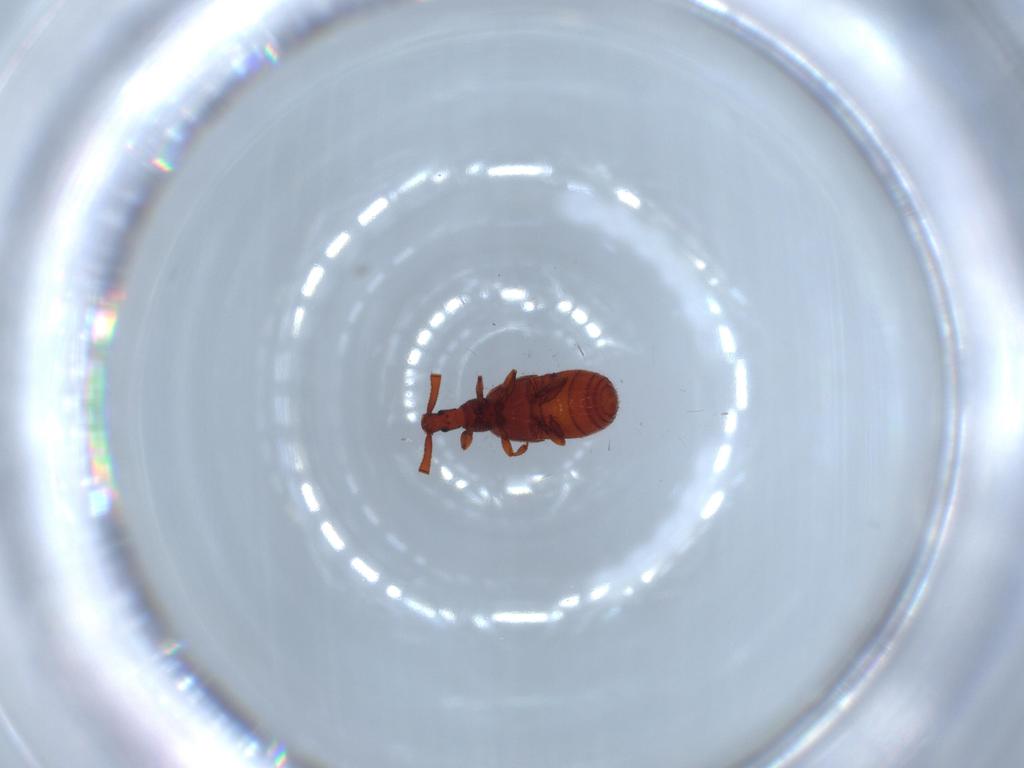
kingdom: Animalia
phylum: Arthropoda
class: Insecta
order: Coleoptera
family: Staphylinidae
